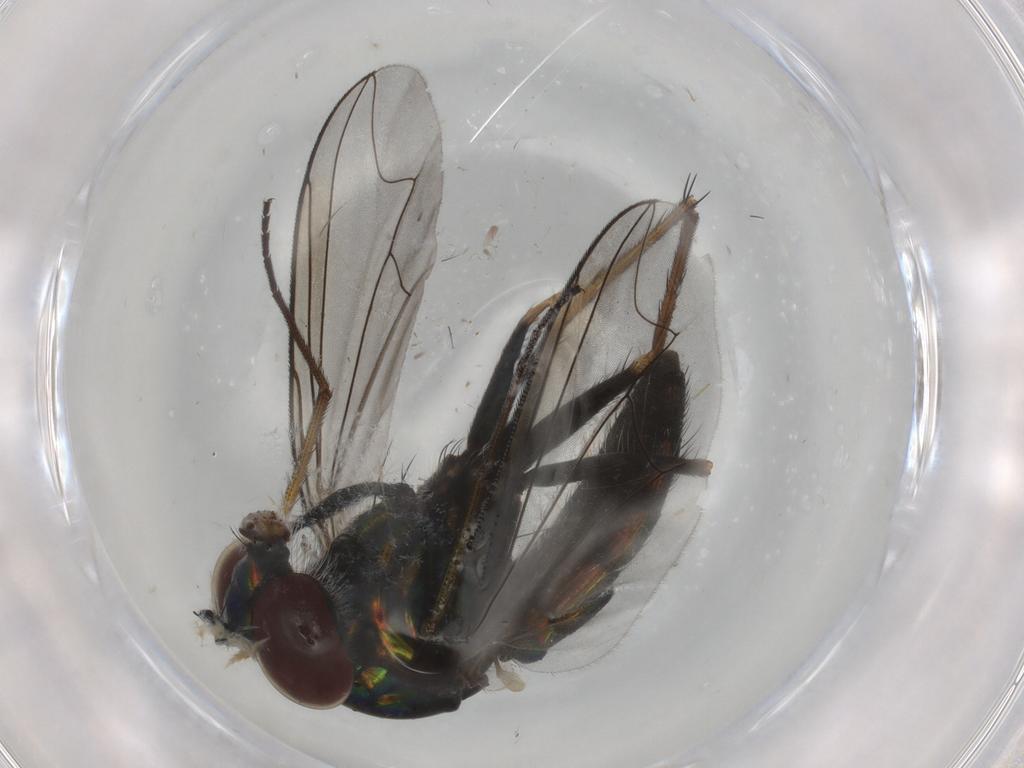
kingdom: Animalia
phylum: Arthropoda
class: Insecta
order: Diptera
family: Dolichopodidae
